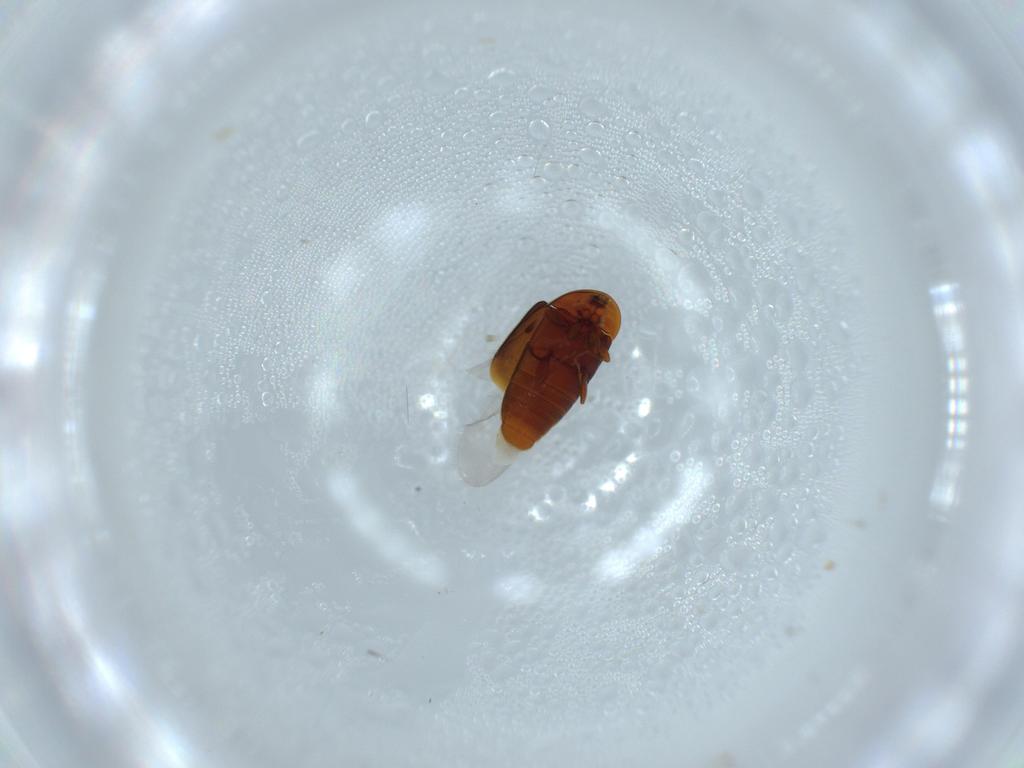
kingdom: Animalia
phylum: Arthropoda
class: Insecta
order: Coleoptera
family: Corylophidae
